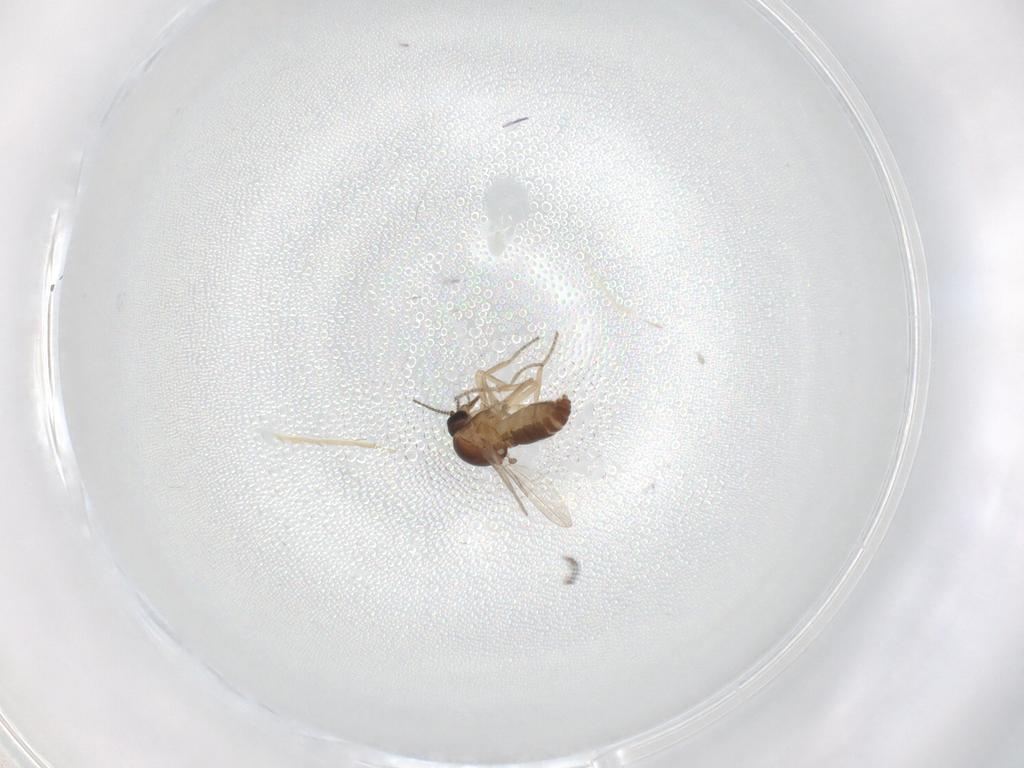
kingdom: Animalia
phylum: Arthropoda
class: Insecta
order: Diptera
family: Ceratopogonidae
